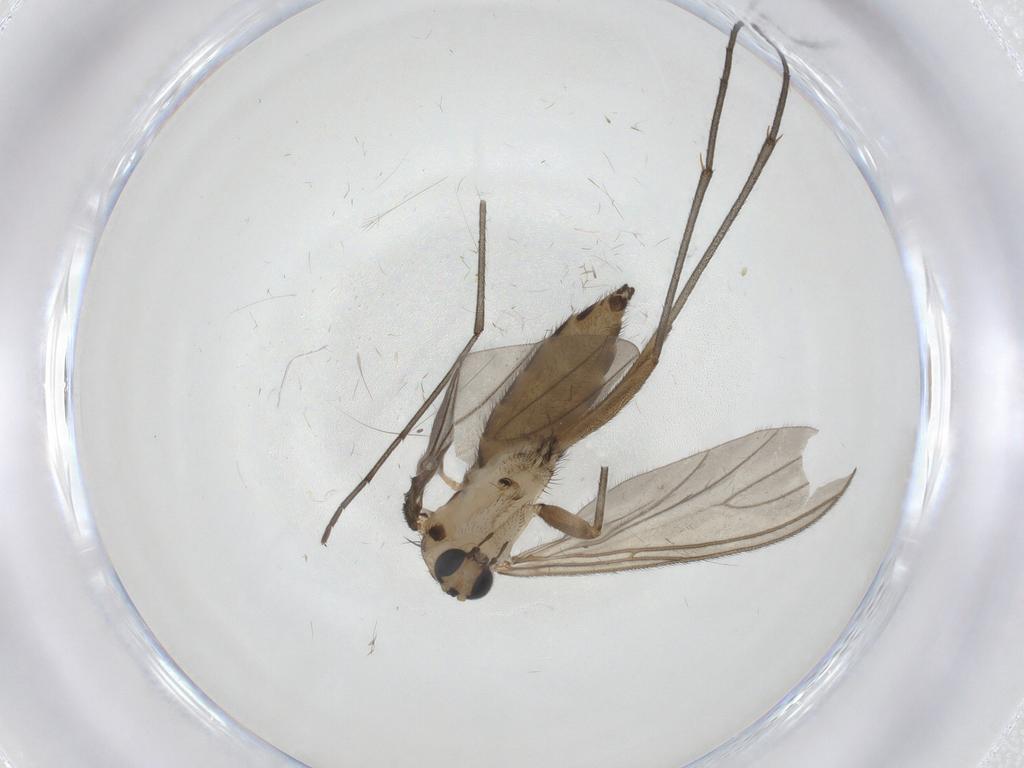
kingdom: Animalia
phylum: Arthropoda
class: Insecta
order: Diptera
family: Sciaridae
